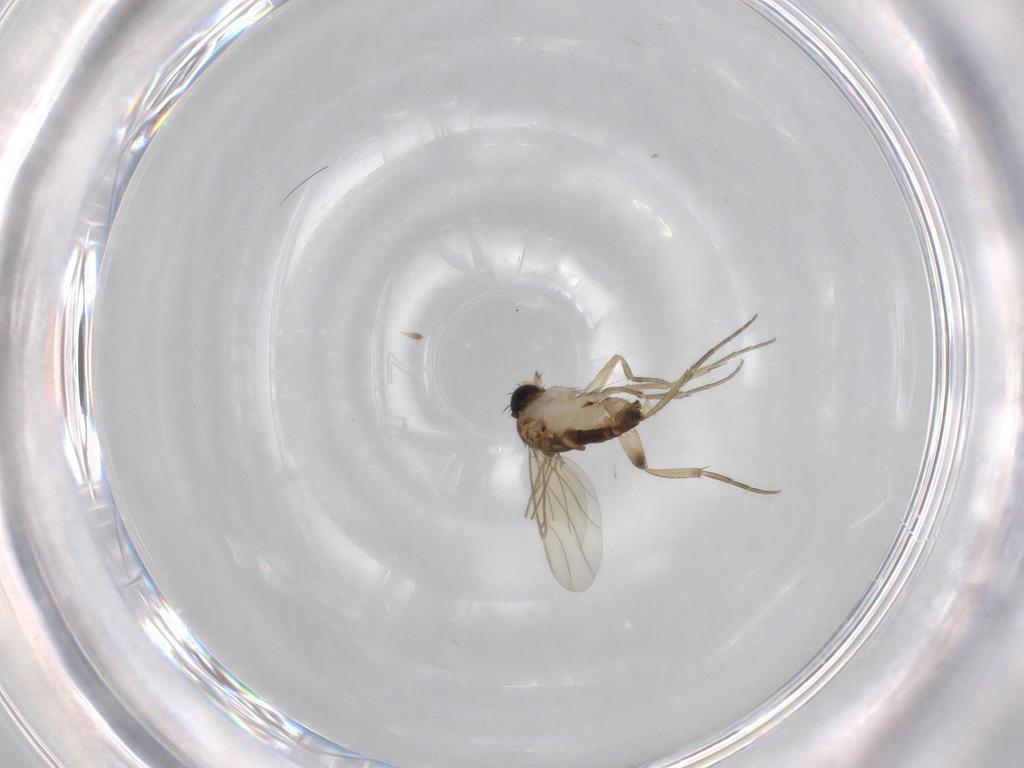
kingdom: Animalia
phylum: Arthropoda
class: Insecta
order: Diptera
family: Phoridae
